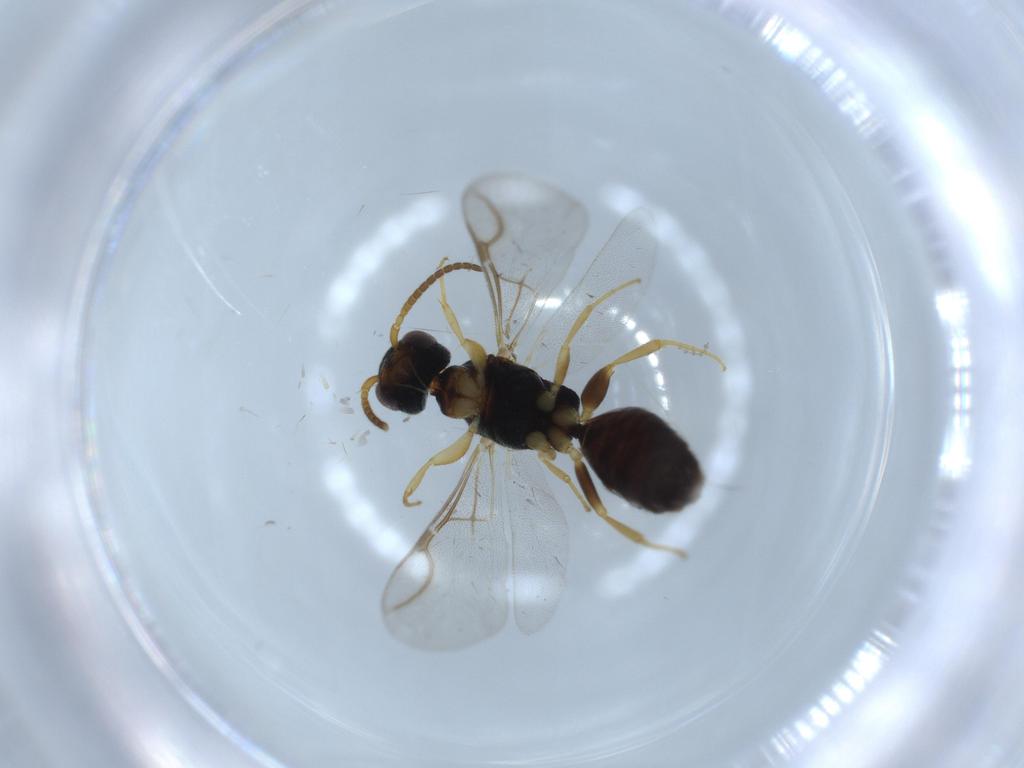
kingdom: Animalia
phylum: Arthropoda
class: Insecta
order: Hymenoptera
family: Bethylidae
